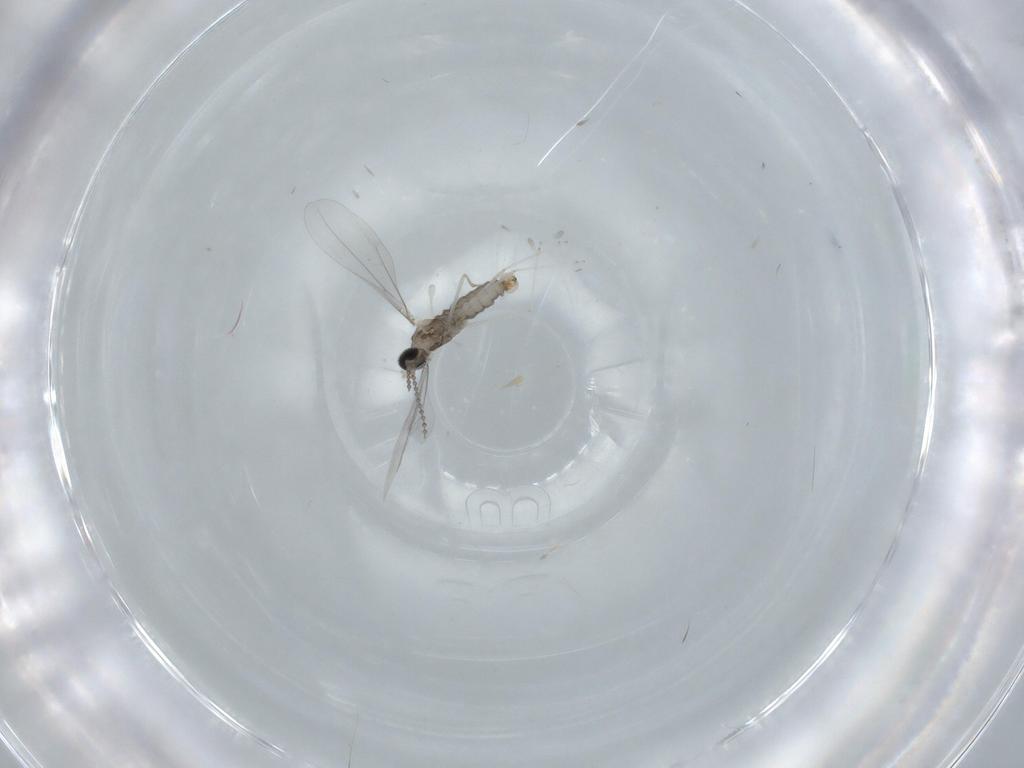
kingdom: Animalia
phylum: Arthropoda
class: Insecta
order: Diptera
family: Cecidomyiidae
